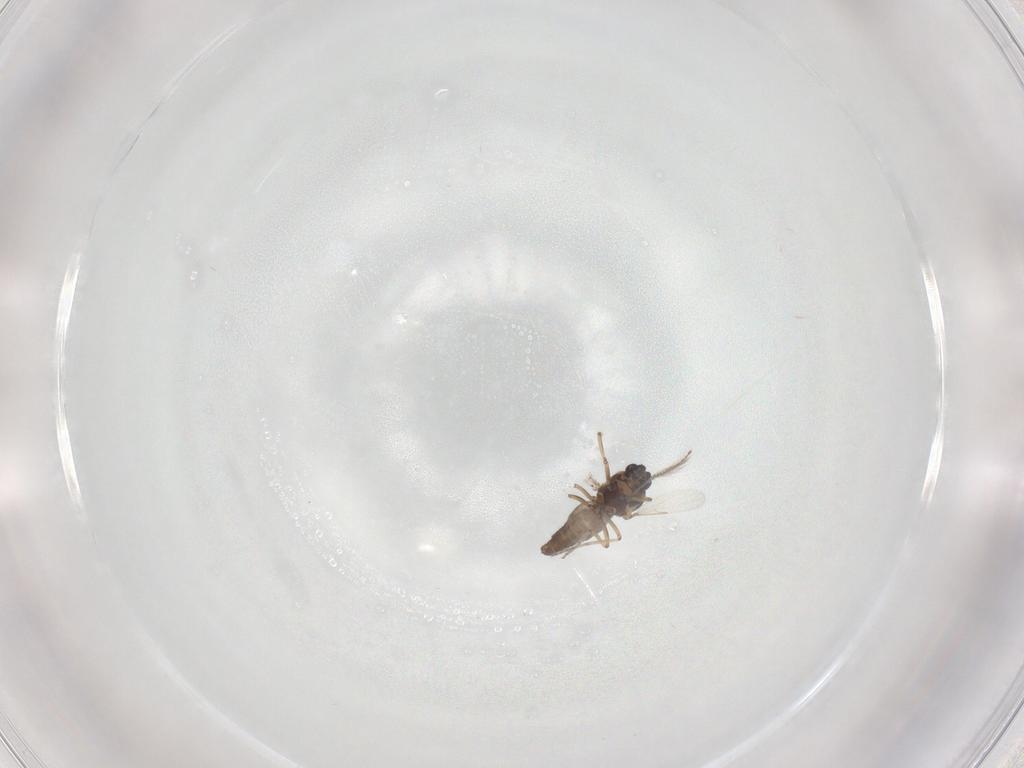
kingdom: Animalia
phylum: Arthropoda
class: Insecta
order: Diptera
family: Ceratopogonidae
